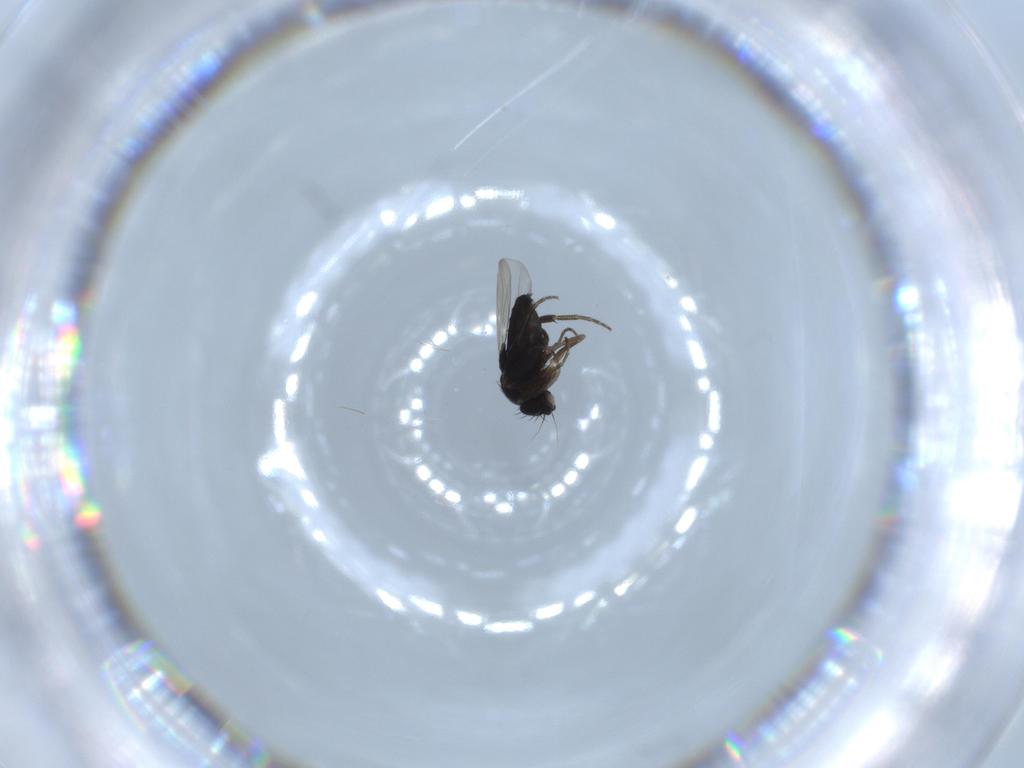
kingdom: Animalia
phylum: Arthropoda
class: Insecta
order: Diptera
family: Phoridae
